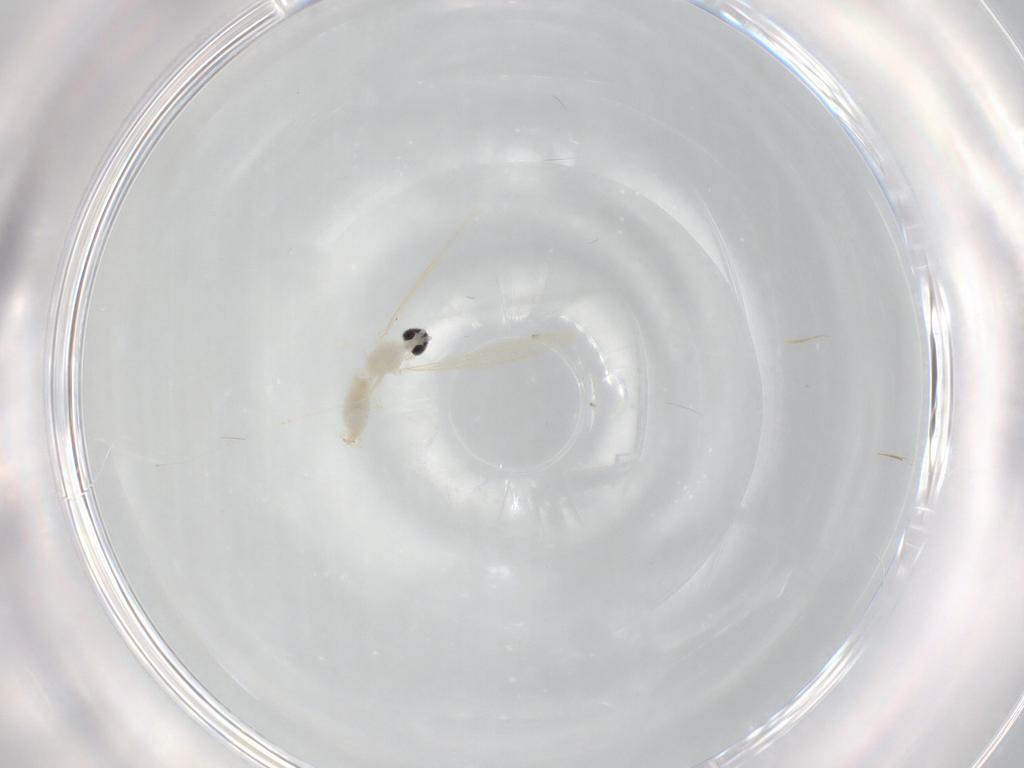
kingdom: Animalia
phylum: Arthropoda
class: Insecta
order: Diptera
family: Cecidomyiidae
